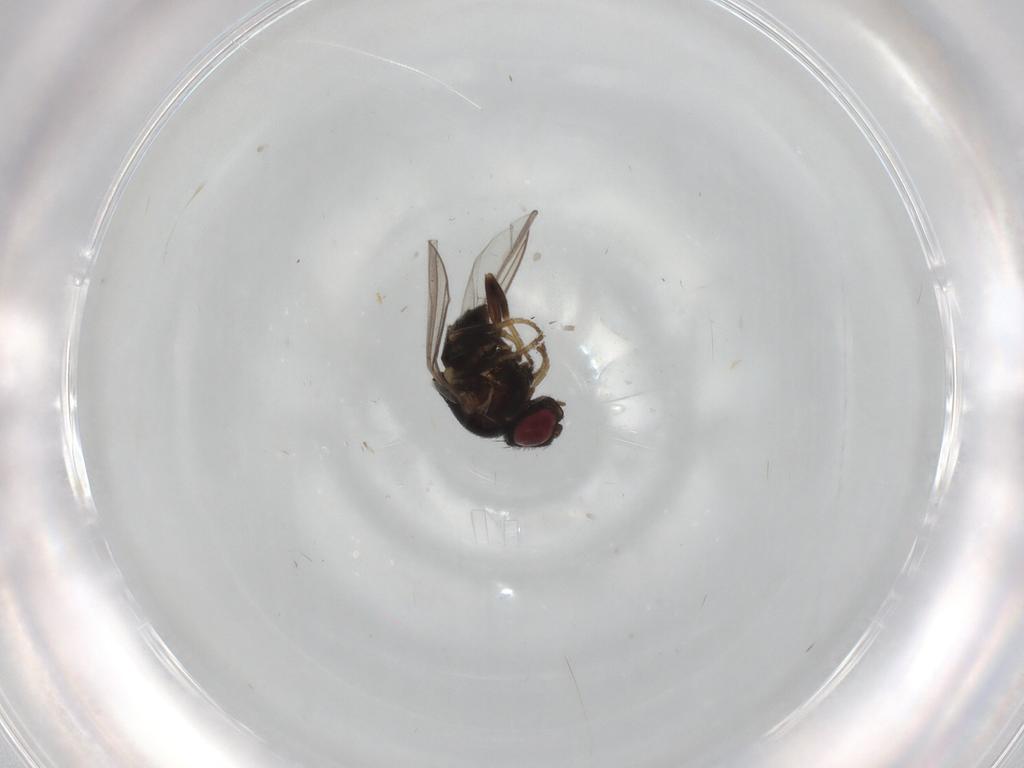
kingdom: Animalia
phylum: Arthropoda
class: Insecta
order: Diptera
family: Chloropidae
